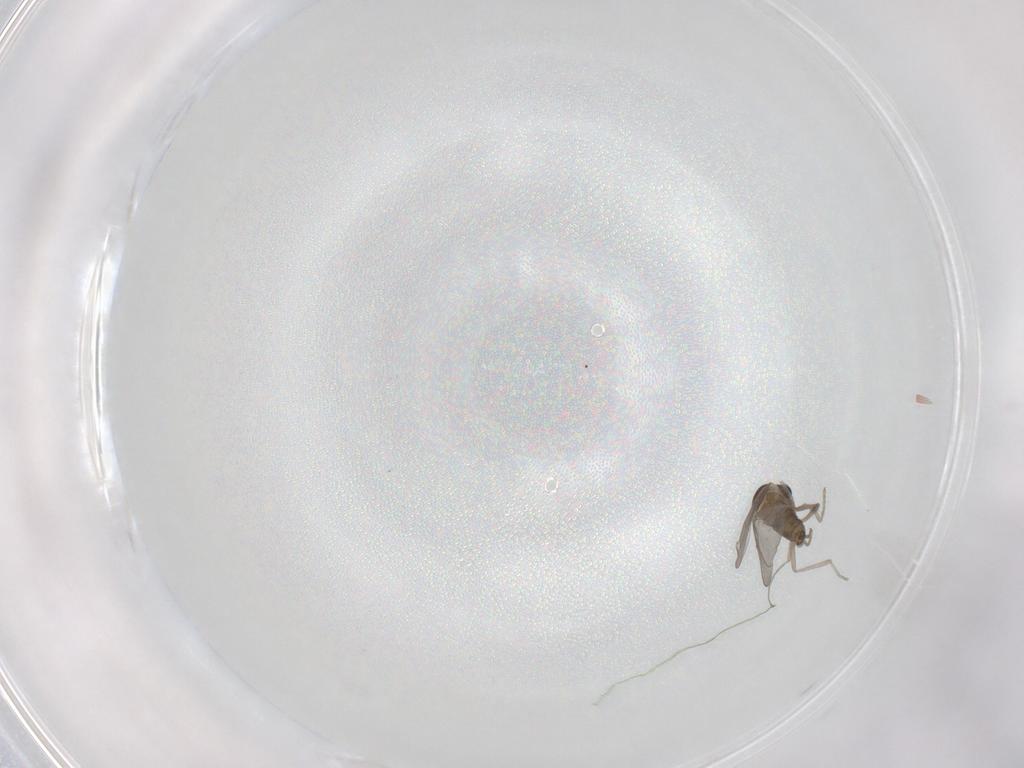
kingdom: Animalia
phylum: Arthropoda
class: Insecta
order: Diptera
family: Cecidomyiidae
